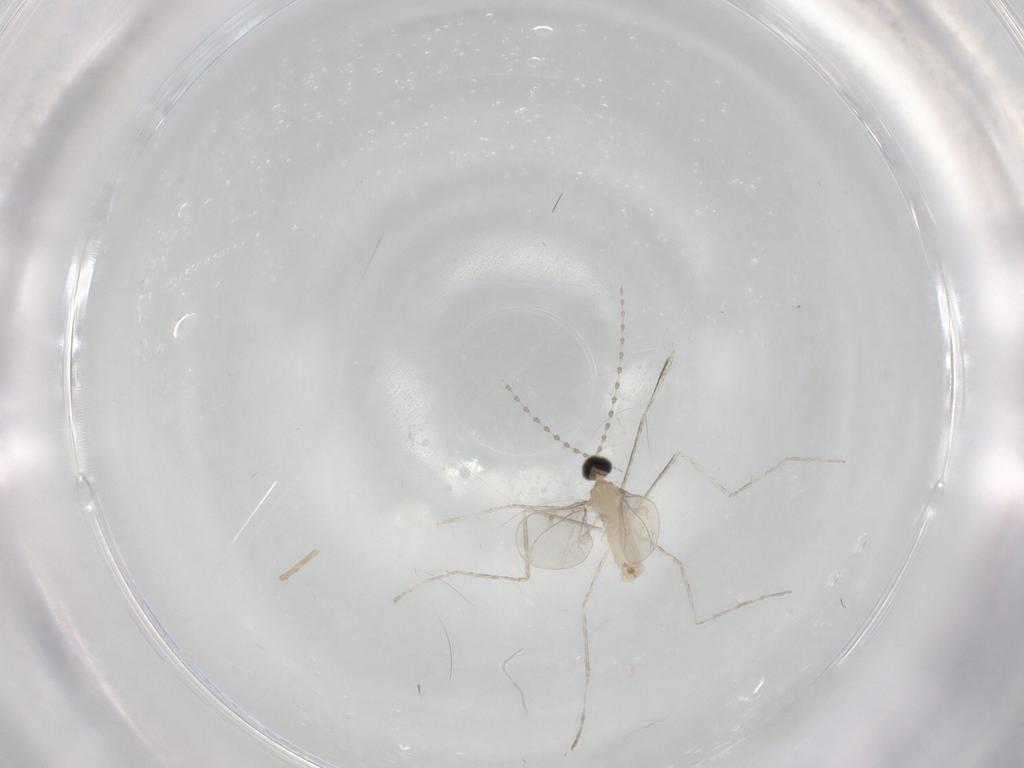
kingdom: Animalia
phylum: Arthropoda
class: Insecta
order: Diptera
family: Cecidomyiidae
